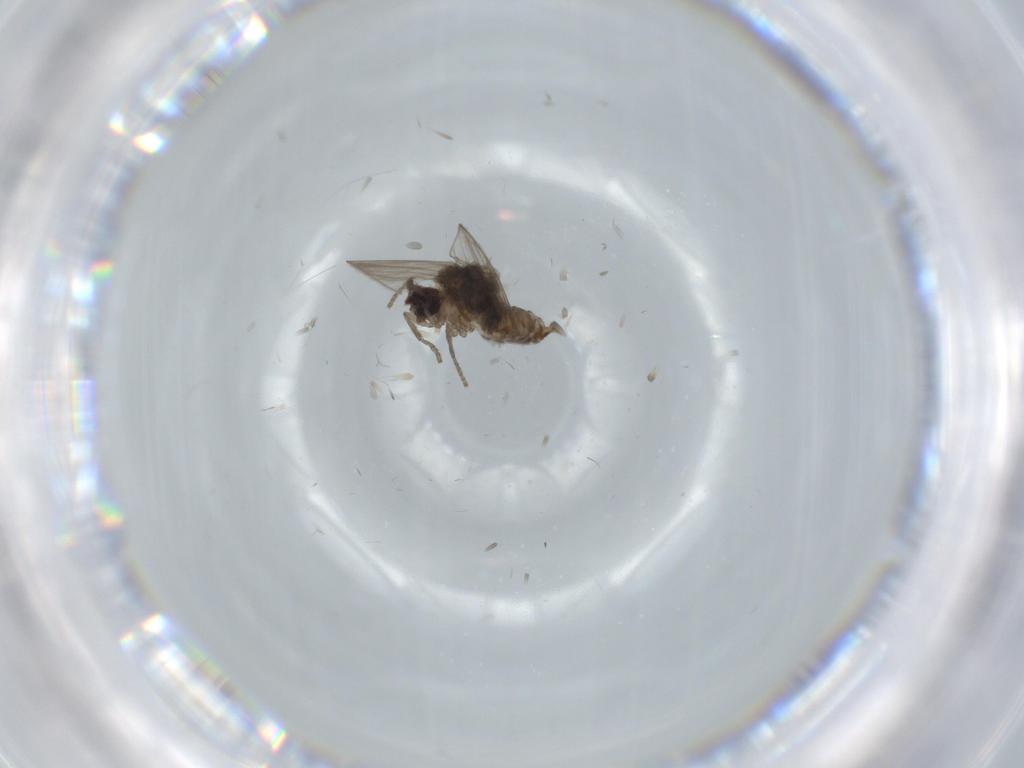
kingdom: Animalia
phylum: Arthropoda
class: Insecta
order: Diptera
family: Psychodidae
